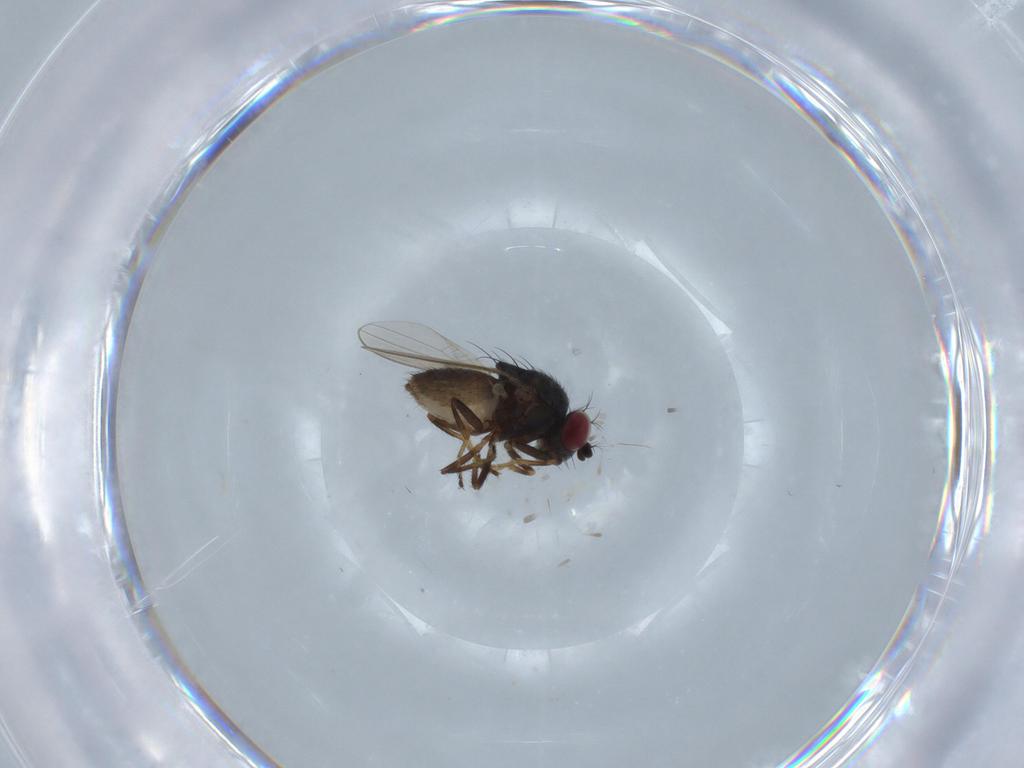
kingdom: Animalia
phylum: Arthropoda
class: Insecta
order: Diptera
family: Ephydridae
